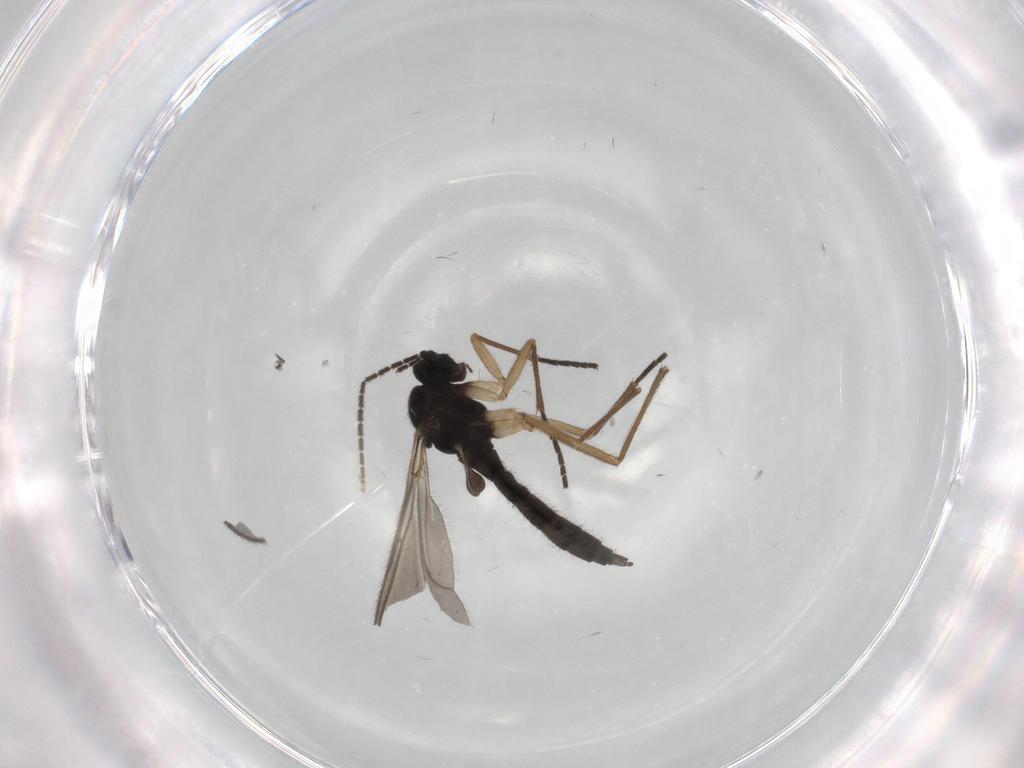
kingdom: Animalia
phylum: Arthropoda
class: Insecta
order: Diptera
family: Sciaridae
